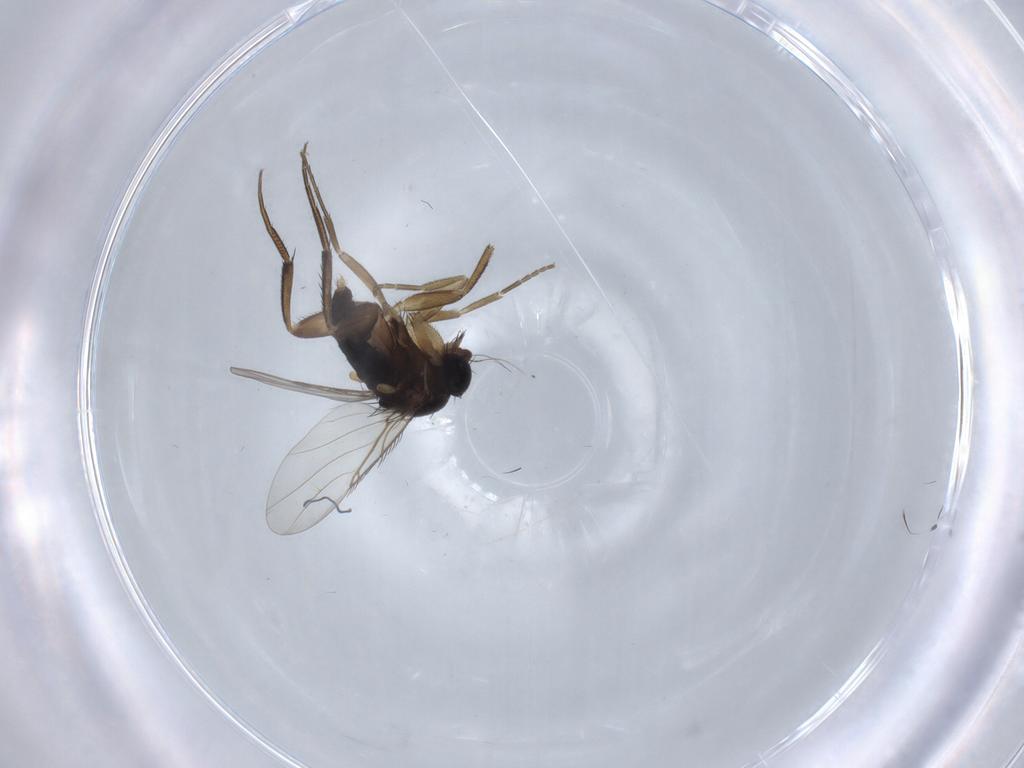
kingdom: Animalia
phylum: Arthropoda
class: Insecta
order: Diptera
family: Phoridae
